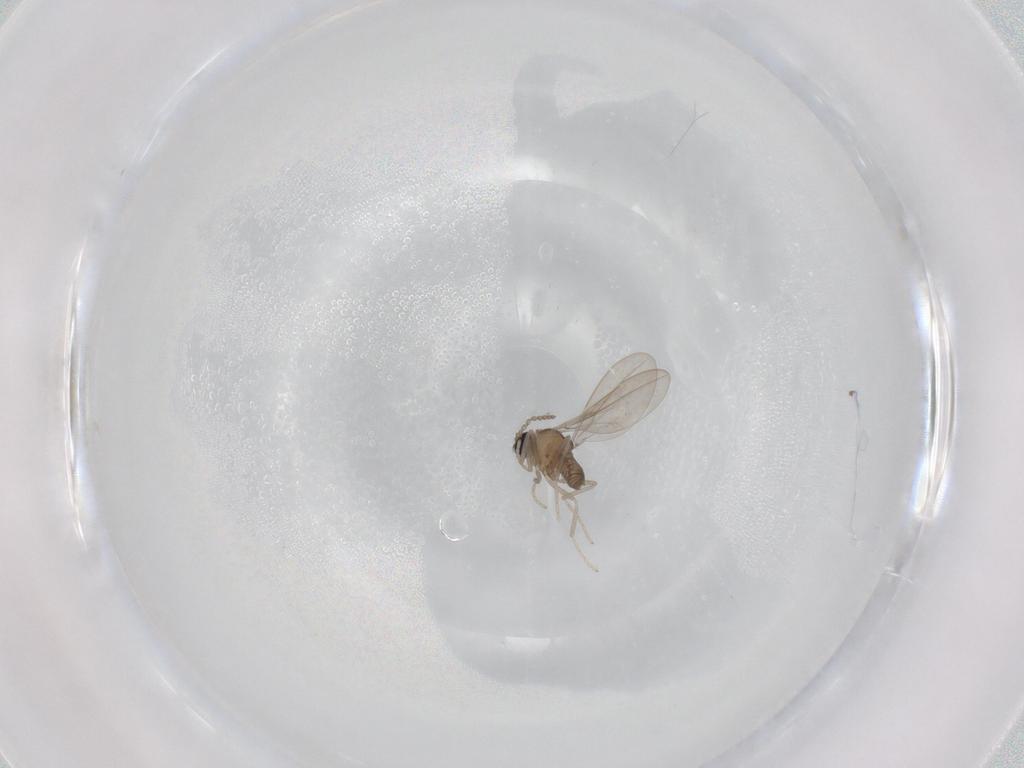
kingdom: Animalia
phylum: Arthropoda
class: Insecta
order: Diptera
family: Cecidomyiidae
